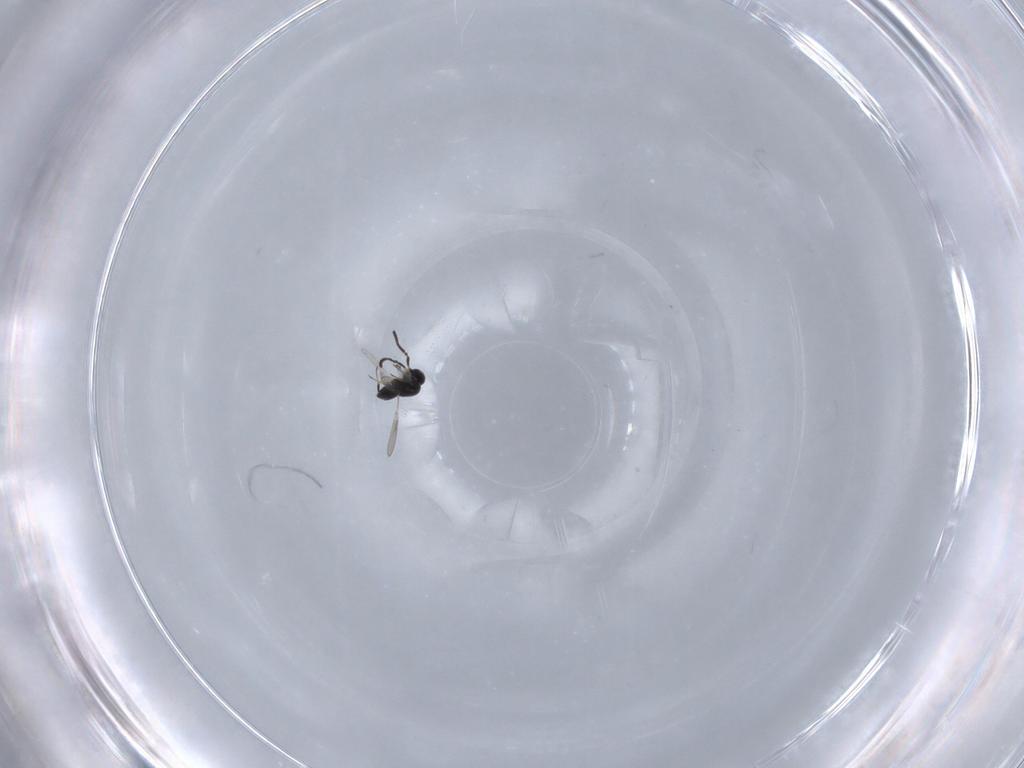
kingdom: Animalia
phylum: Arthropoda
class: Insecta
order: Hymenoptera
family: Scelionidae
